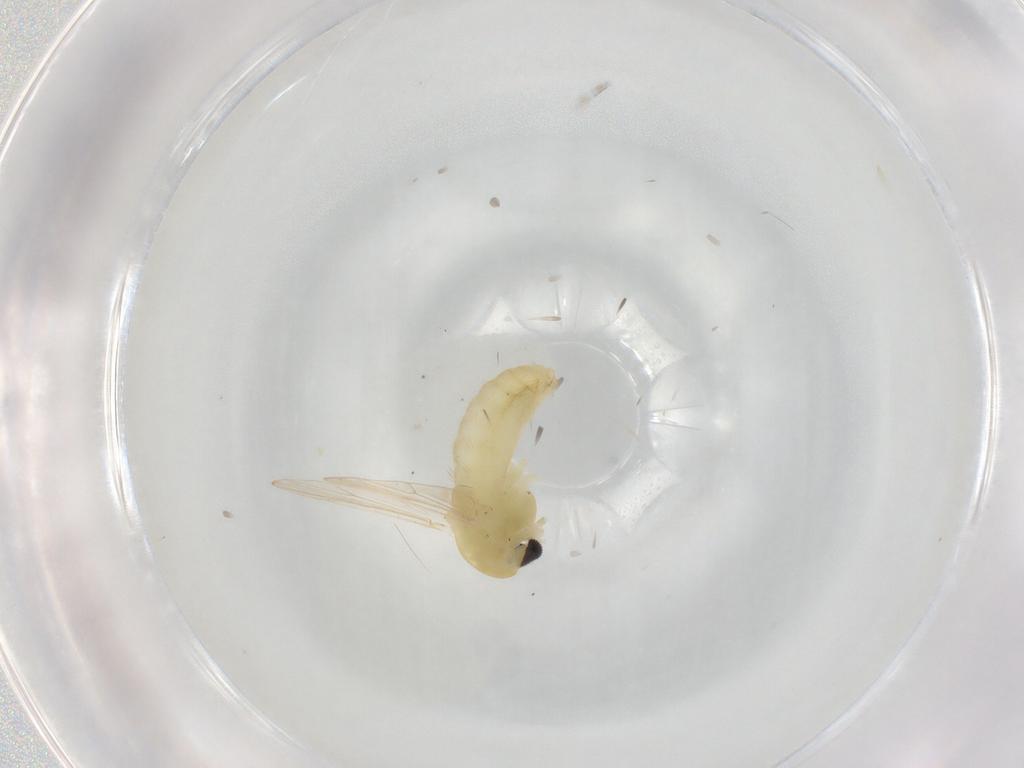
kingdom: Animalia
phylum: Arthropoda
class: Insecta
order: Diptera
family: Chironomidae
